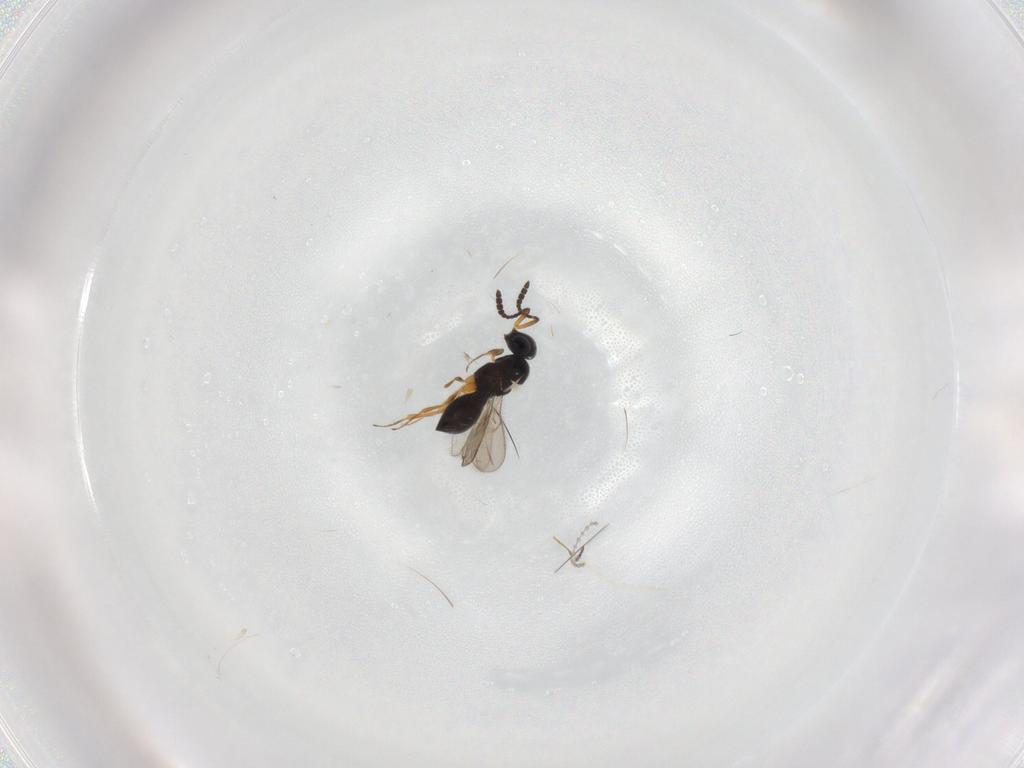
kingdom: Animalia
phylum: Arthropoda
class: Insecta
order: Hymenoptera
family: Scelionidae
